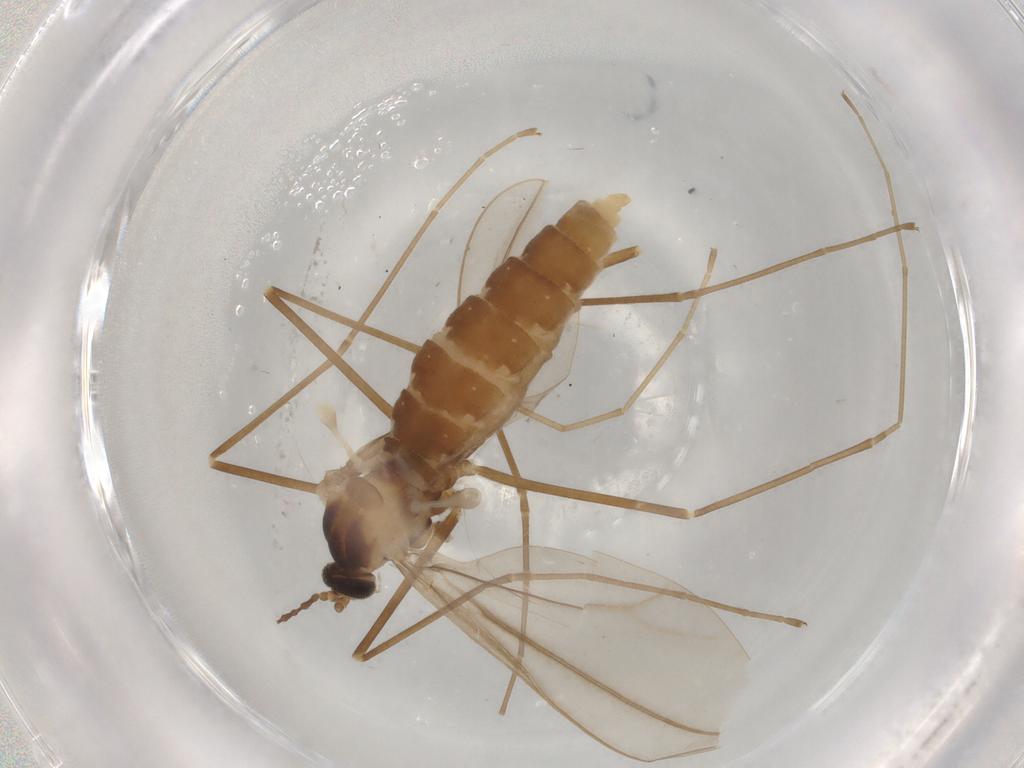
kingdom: Animalia
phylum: Arthropoda
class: Insecta
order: Diptera
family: Cecidomyiidae
